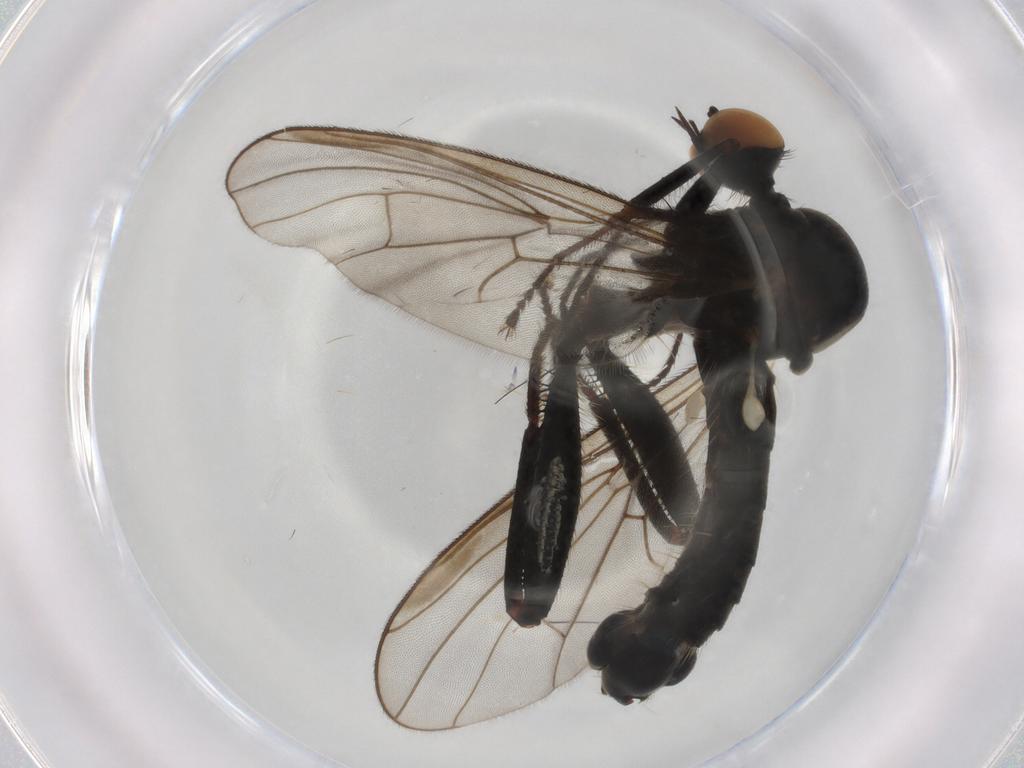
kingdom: Animalia
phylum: Arthropoda
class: Insecta
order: Diptera
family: Hybotidae
